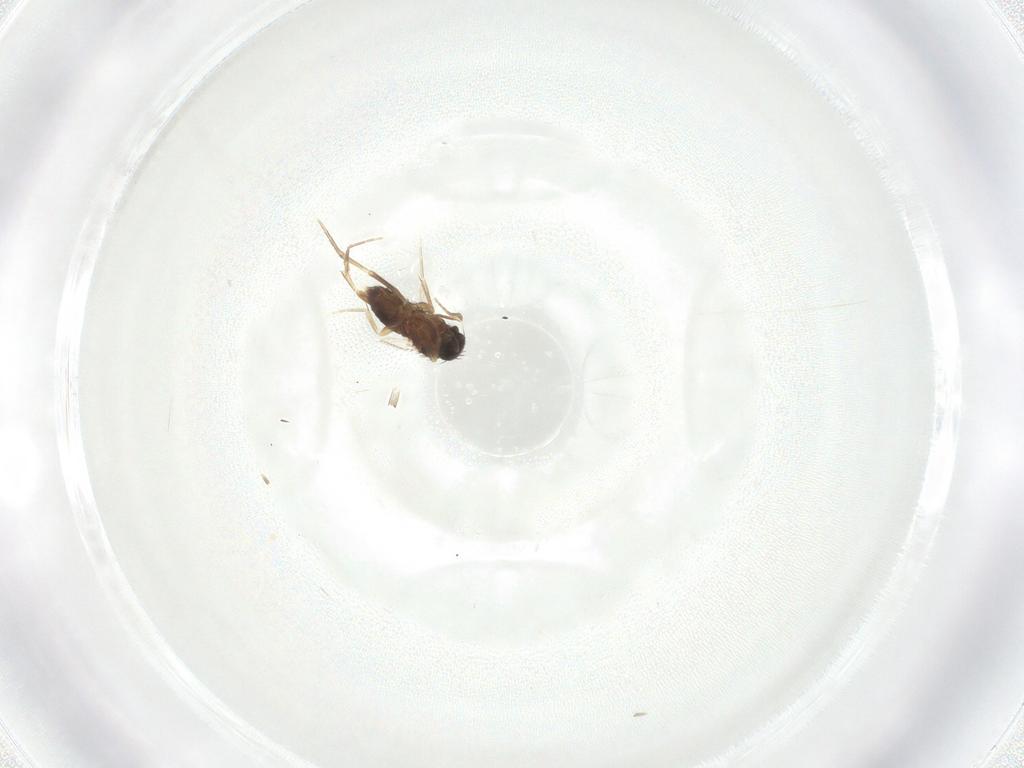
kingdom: Animalia
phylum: Arthropoda
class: Insecta
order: Diptera
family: Phoridae
